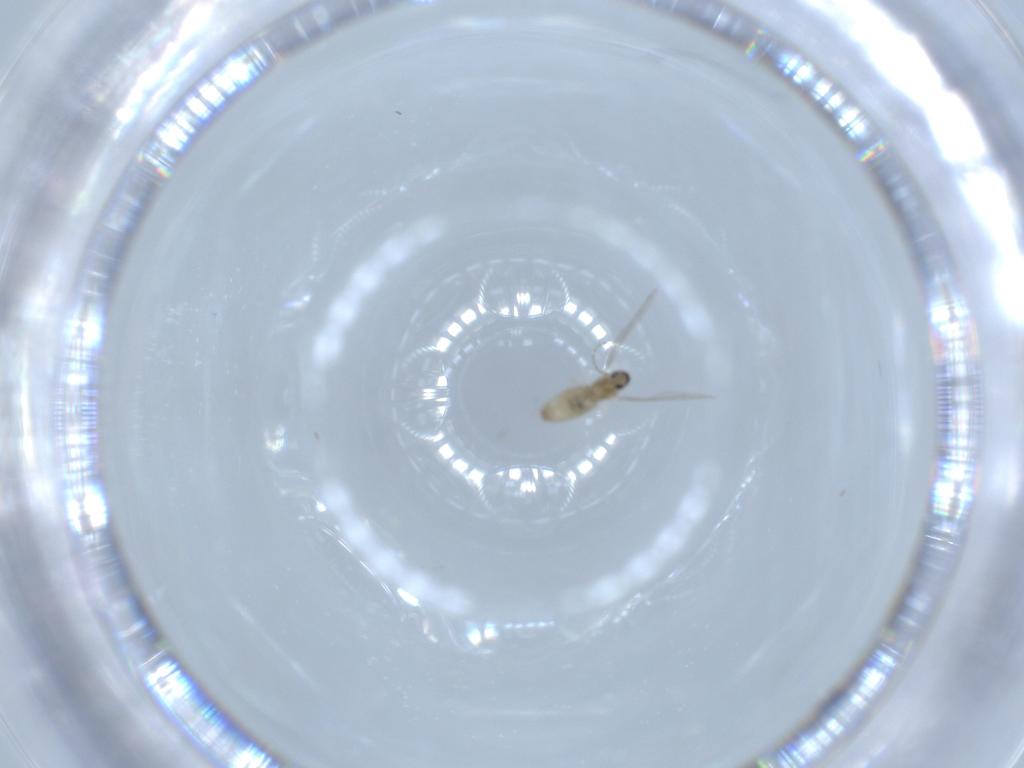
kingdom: Animalia
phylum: Arthropoda
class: Insecta
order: Diptera
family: Cecidomyiidae
